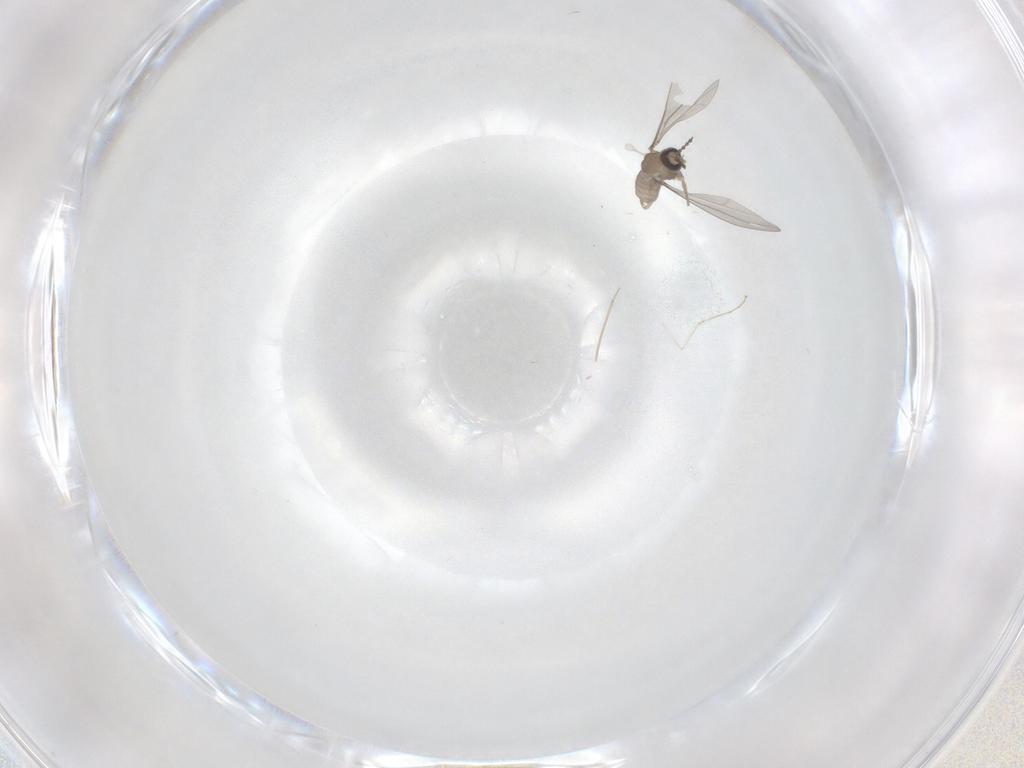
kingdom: Animalia
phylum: Arthropoda
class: Insecta
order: Diptera
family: Cecidomyiidae
